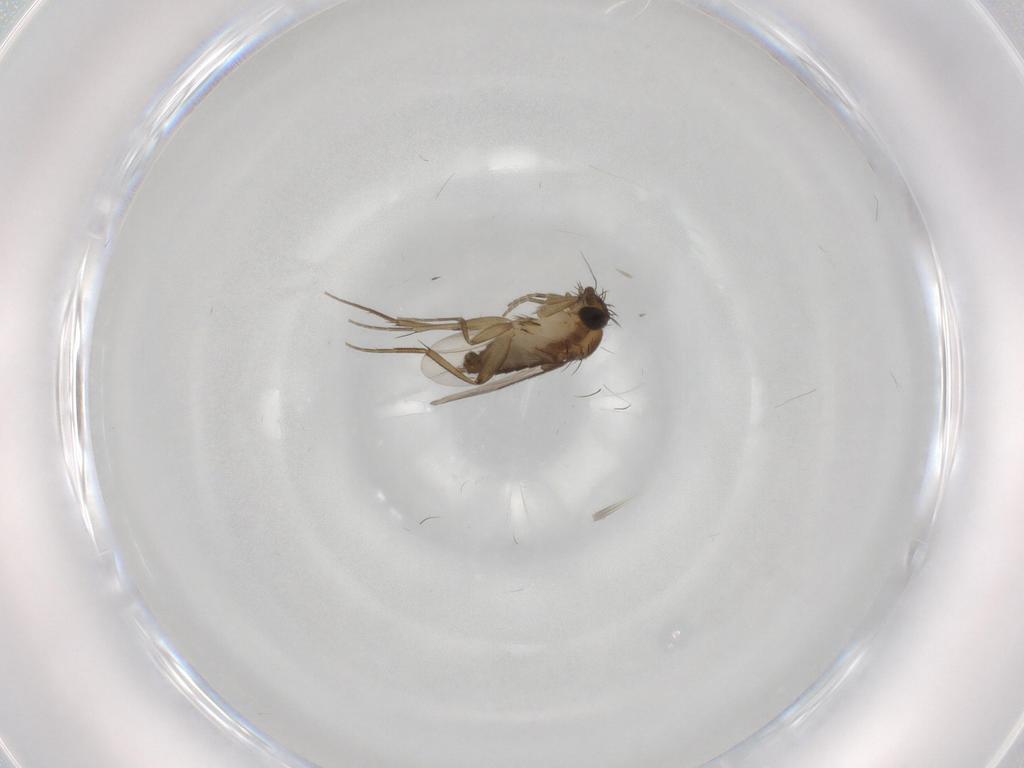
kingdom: Animalia
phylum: Arthropoda
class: Insecta
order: Diptera
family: Phoridae
